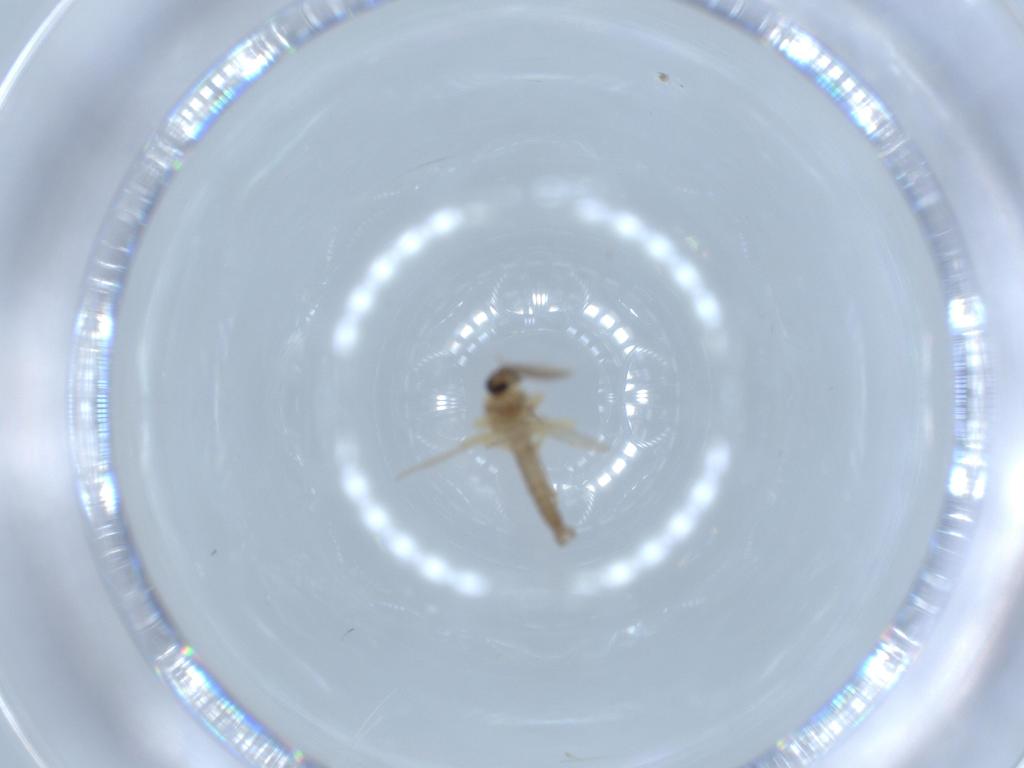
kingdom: Animalia
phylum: Arthropoda
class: Insecta
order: Diptera
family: Ceratopogonidae
